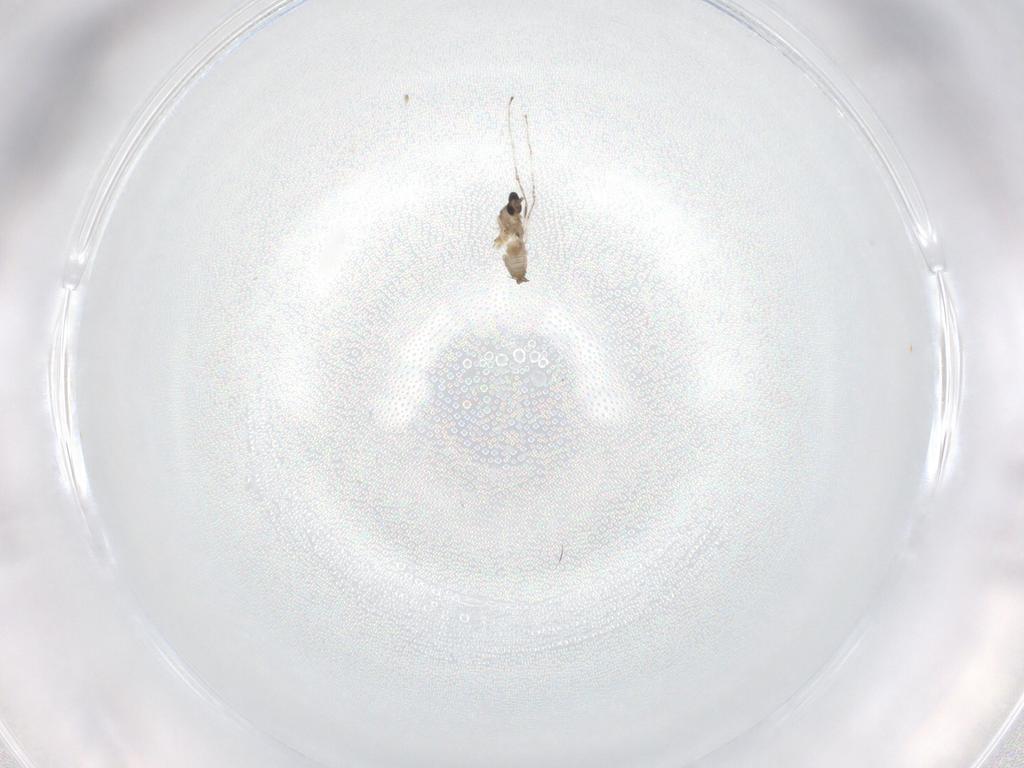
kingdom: Animalia
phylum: Arthropoda
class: Insecta
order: Diptera
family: Cecidomyiidae
